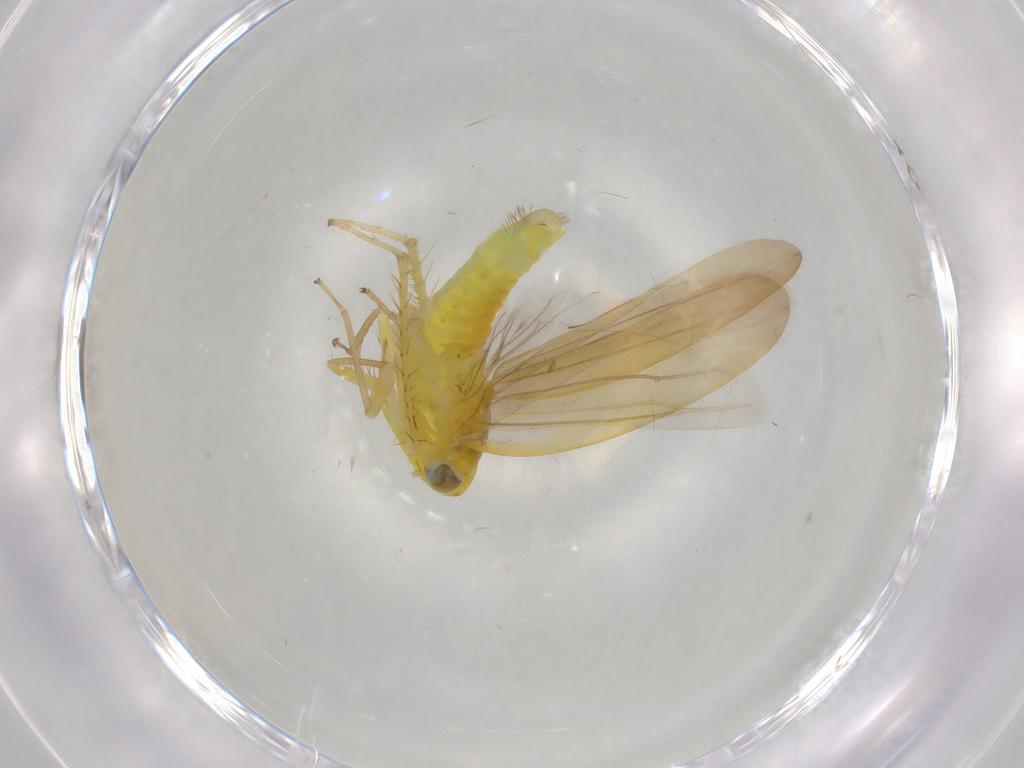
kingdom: Animalia
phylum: Arthropoda
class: Insecta
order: Hemiptera
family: Cicadellidae
